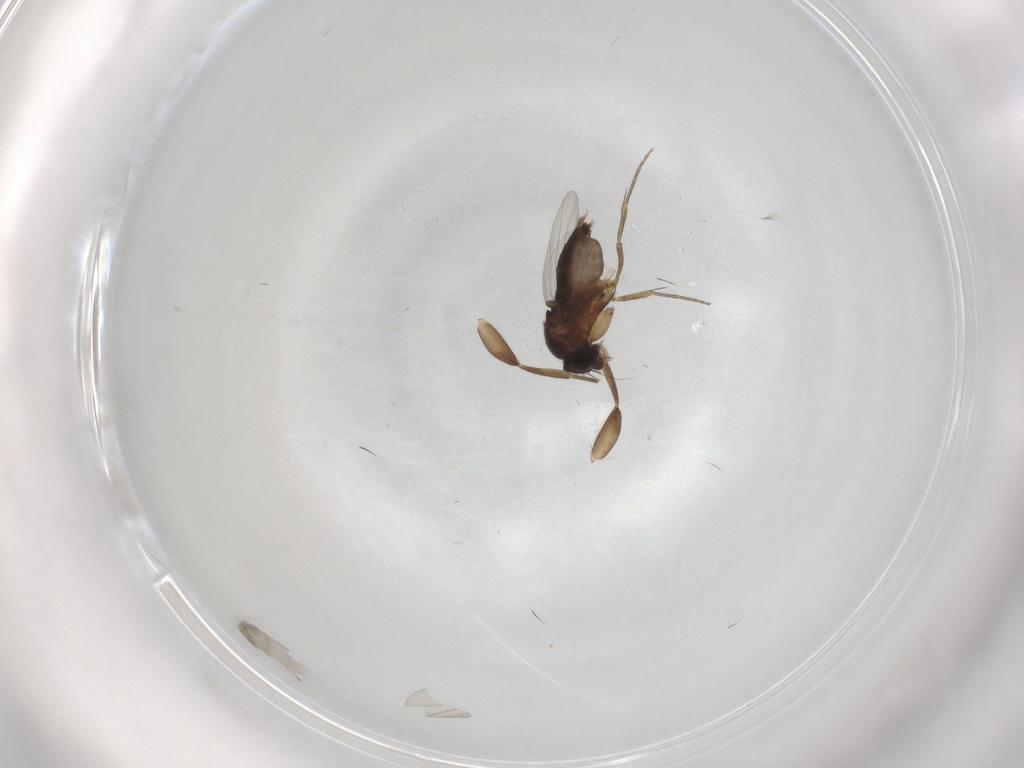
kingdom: Animalia
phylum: Arthropoda
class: Insecta
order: Diptera
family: Phoridae
